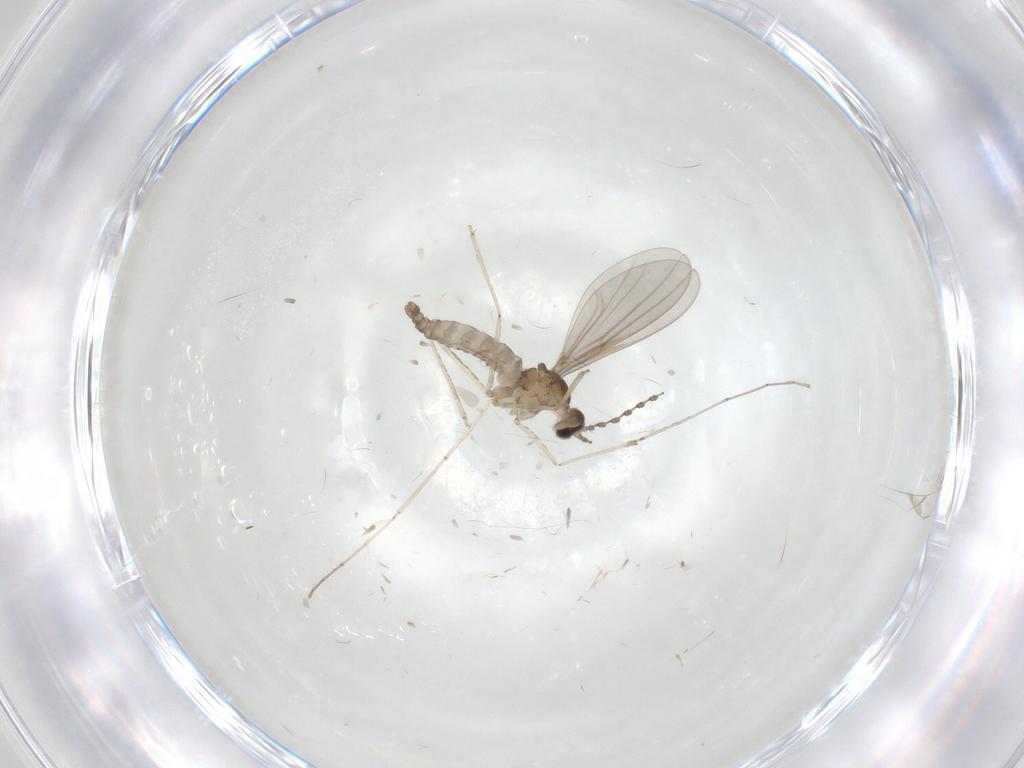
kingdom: Animalia
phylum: Arthropoda
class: Insecta
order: Diptera
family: Cecidomyiidae
